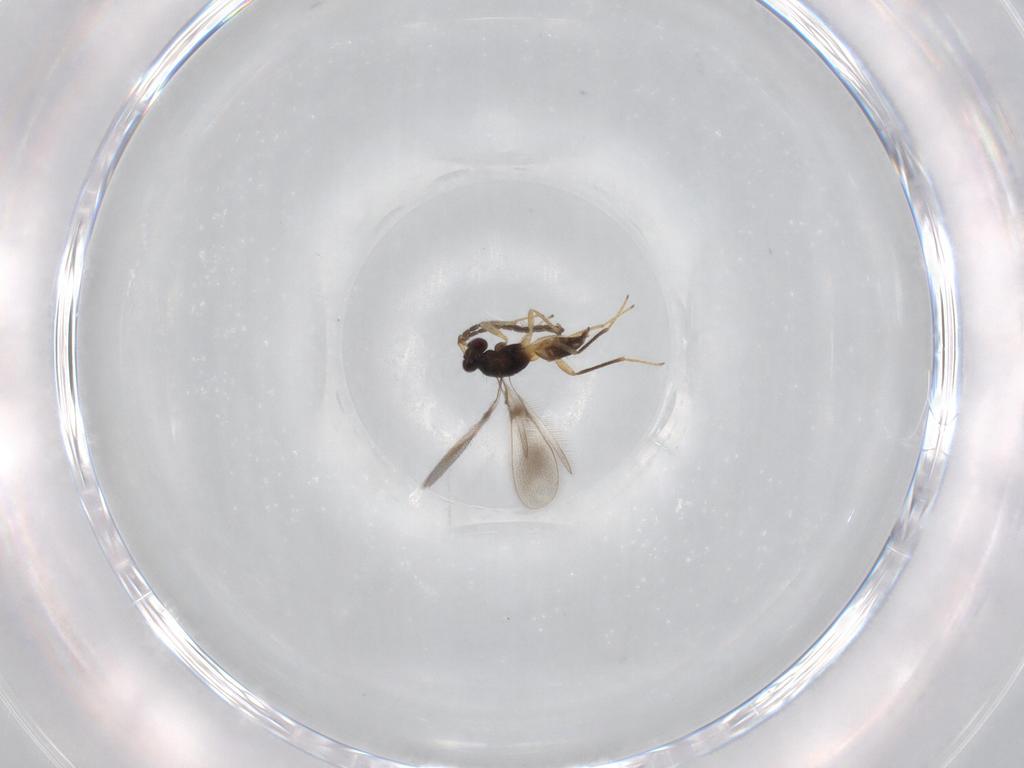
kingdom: Animalia
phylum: Arthropoda
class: Insecta
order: Hymenoptera
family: Mymaridae
